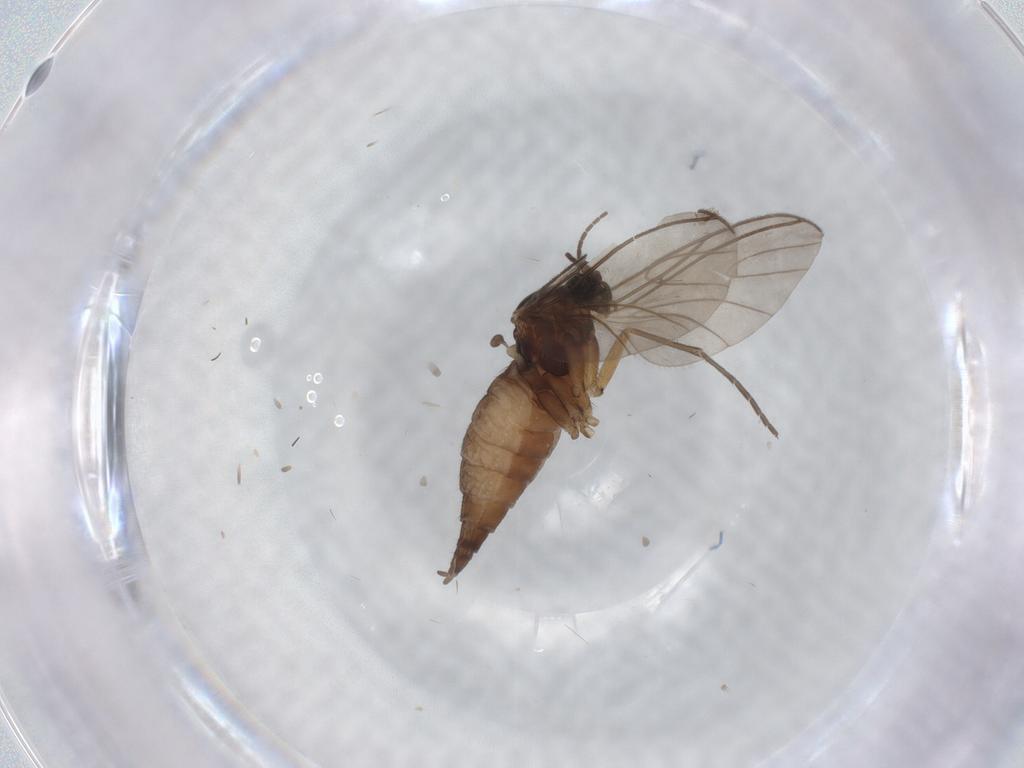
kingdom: Animalia
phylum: Arthropoda
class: Insecta
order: Diptera
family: Sciaridae
